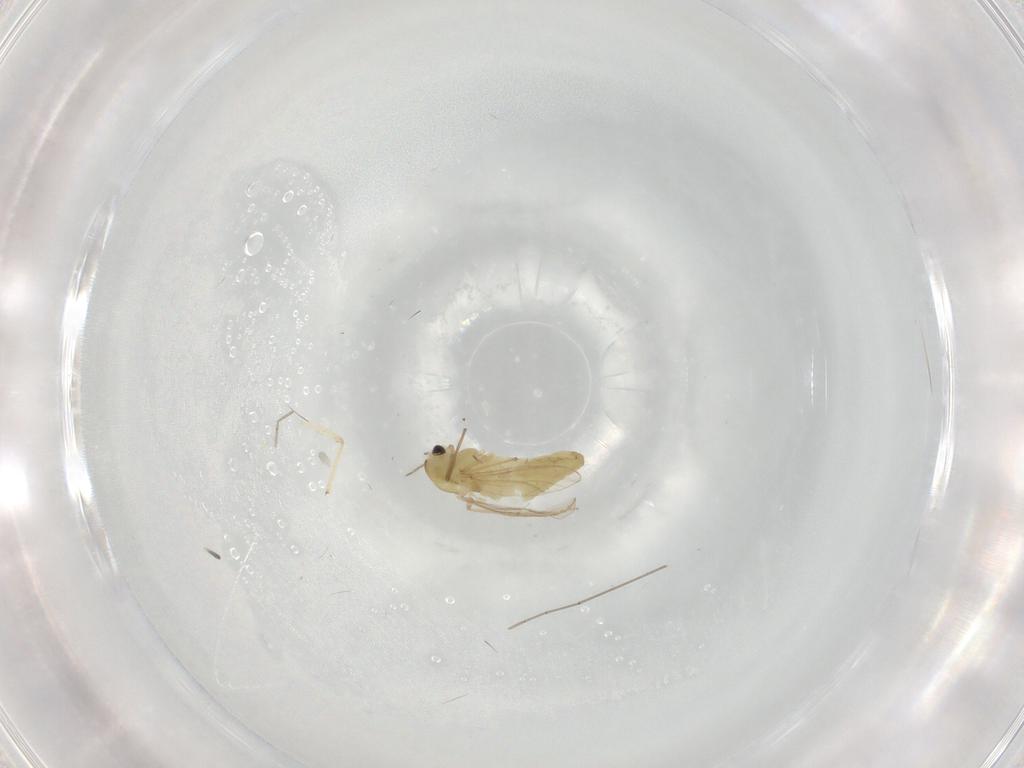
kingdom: Animalia
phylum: Arthropoda
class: Insecta
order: Diptera
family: Chironomidae
